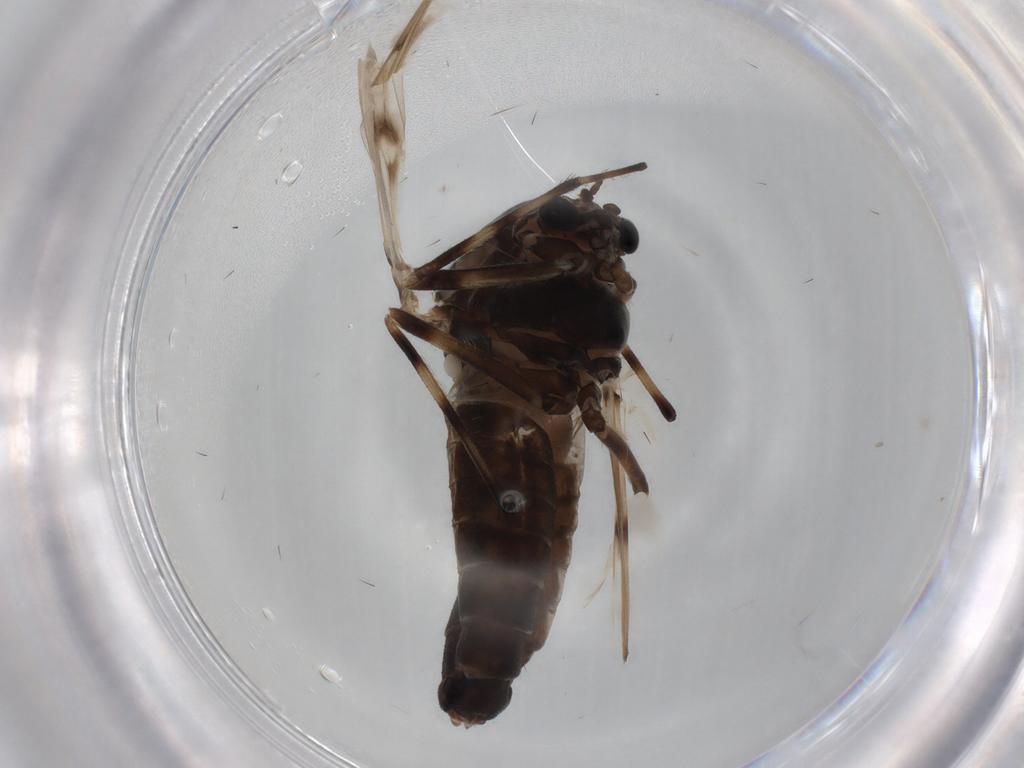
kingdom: Animalia
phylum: Arthropoda
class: Insecta
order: Diptera
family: Chironomidae
